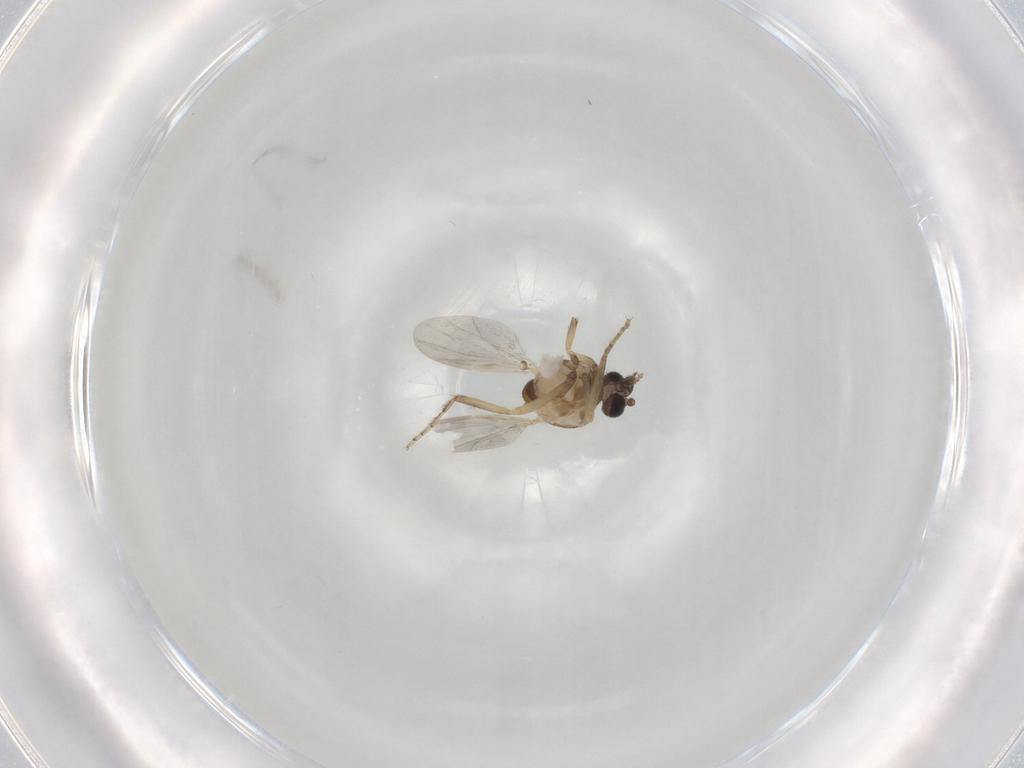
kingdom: Animalia
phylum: Arthropoda
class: Insecta
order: Diptera
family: Ceratopogonidae
